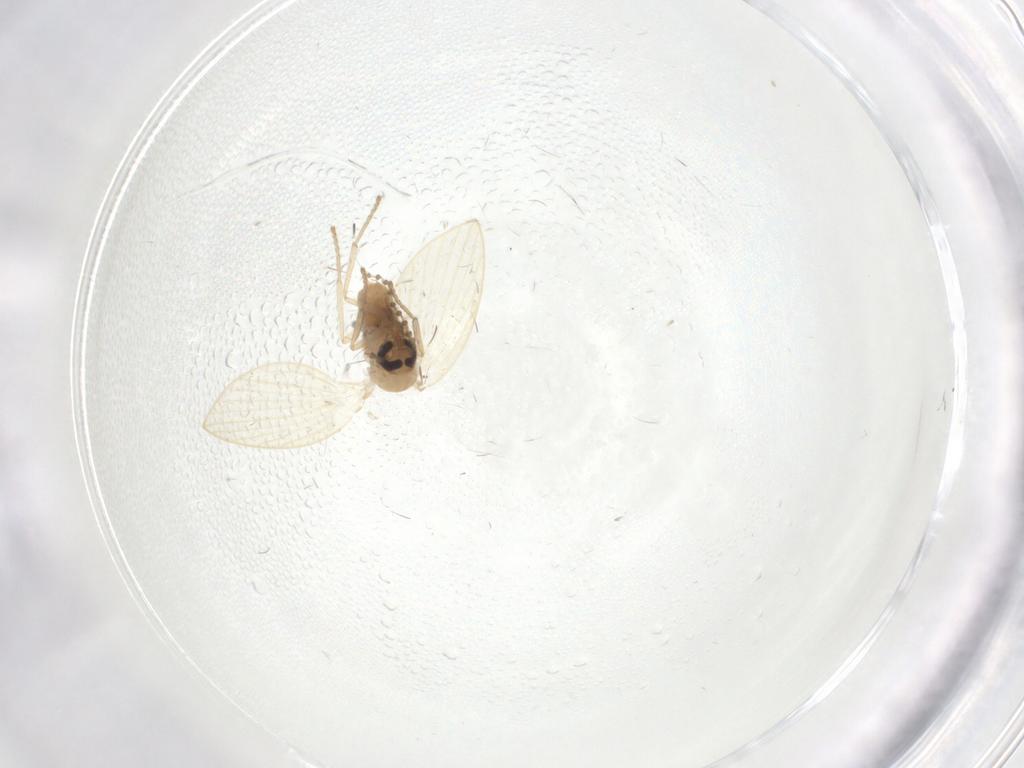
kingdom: Animalia
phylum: Arthropoda
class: Insecta
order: Diptera
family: Psychodidae
